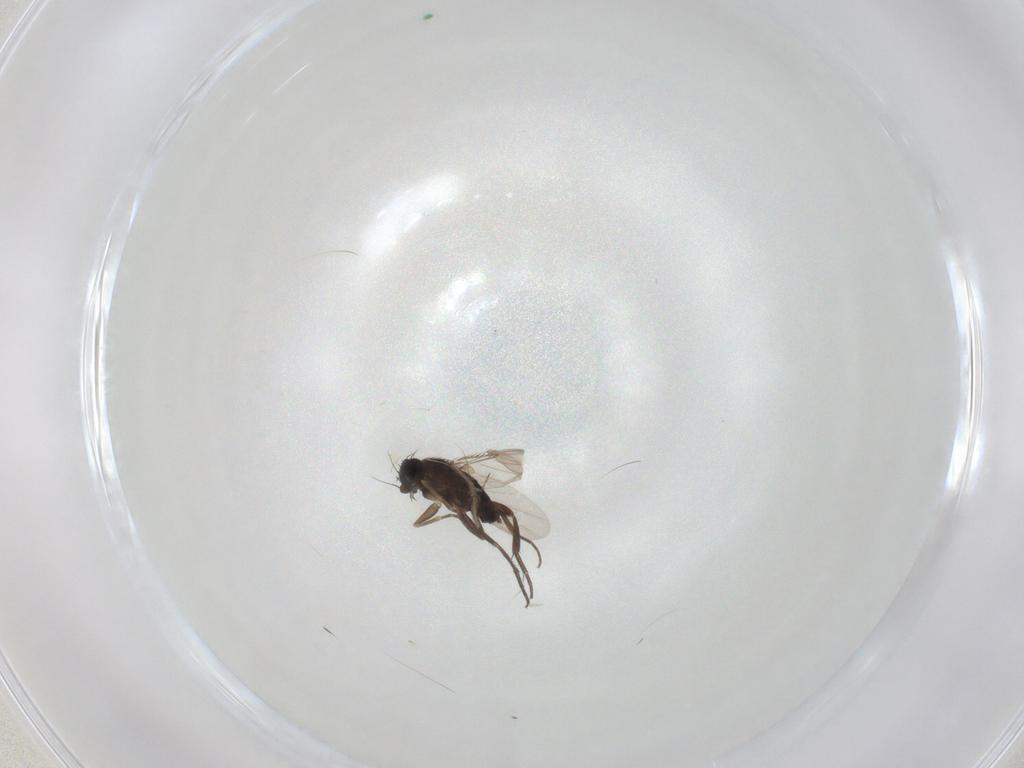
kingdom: Animalia
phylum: Arthropoda
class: Insecta
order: Diptera
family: Phoridae
